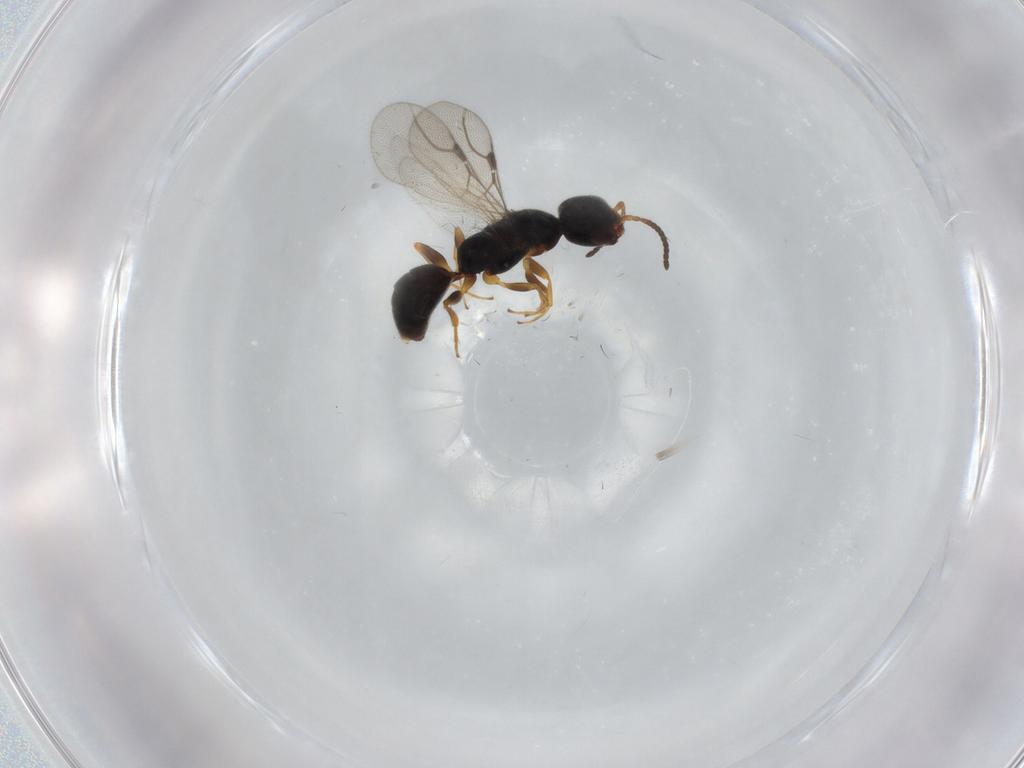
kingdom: Animalia
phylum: Arthropoda
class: Insecta
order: Hymenoptera
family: Bethylidae
